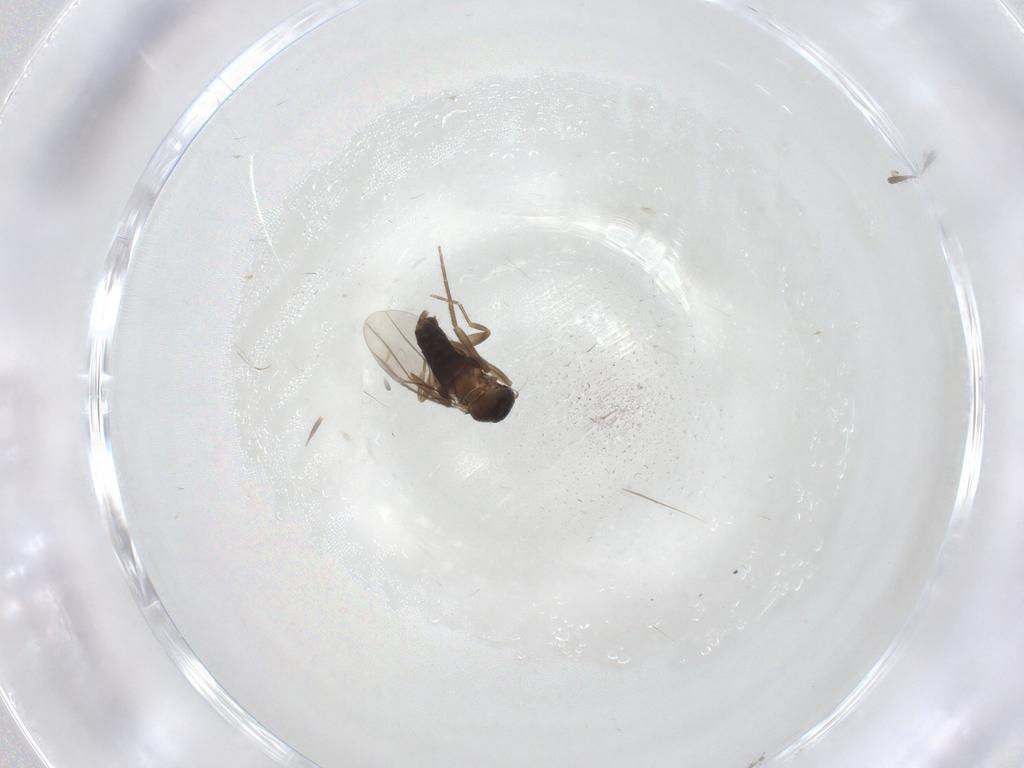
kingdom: Animalia
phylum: Arthropoda
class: Insecta
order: Diptera
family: Phoridae
